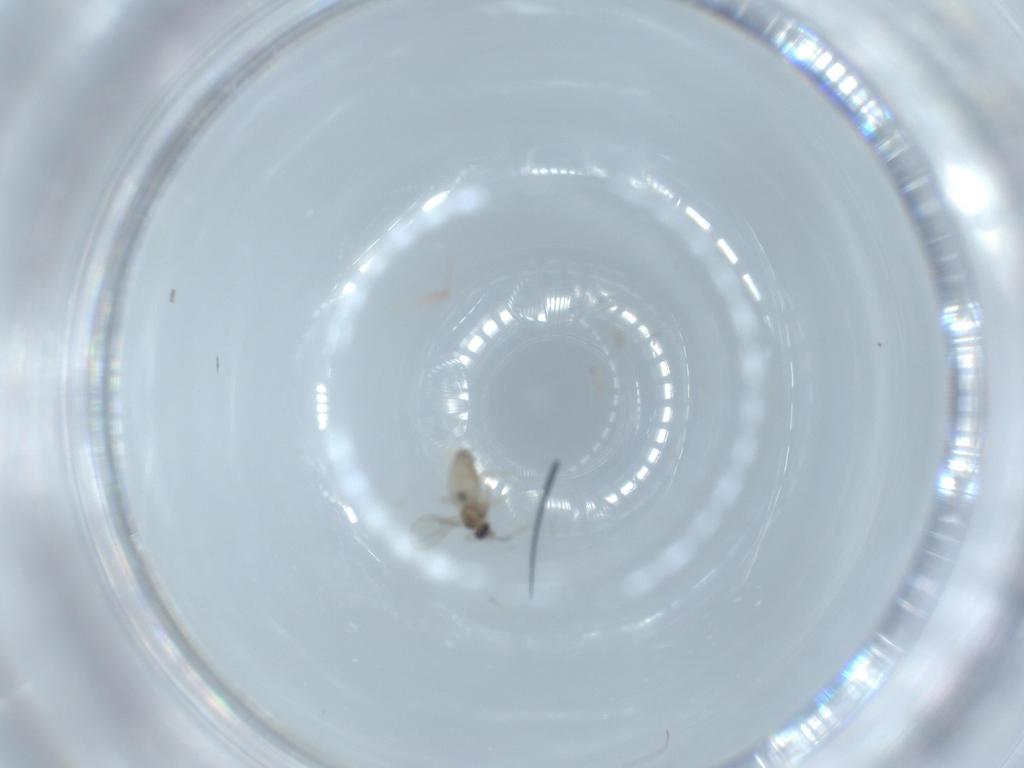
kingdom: Animalia
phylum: Arthropoda
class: Insecta
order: Diptera
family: Cecidomyiidae
